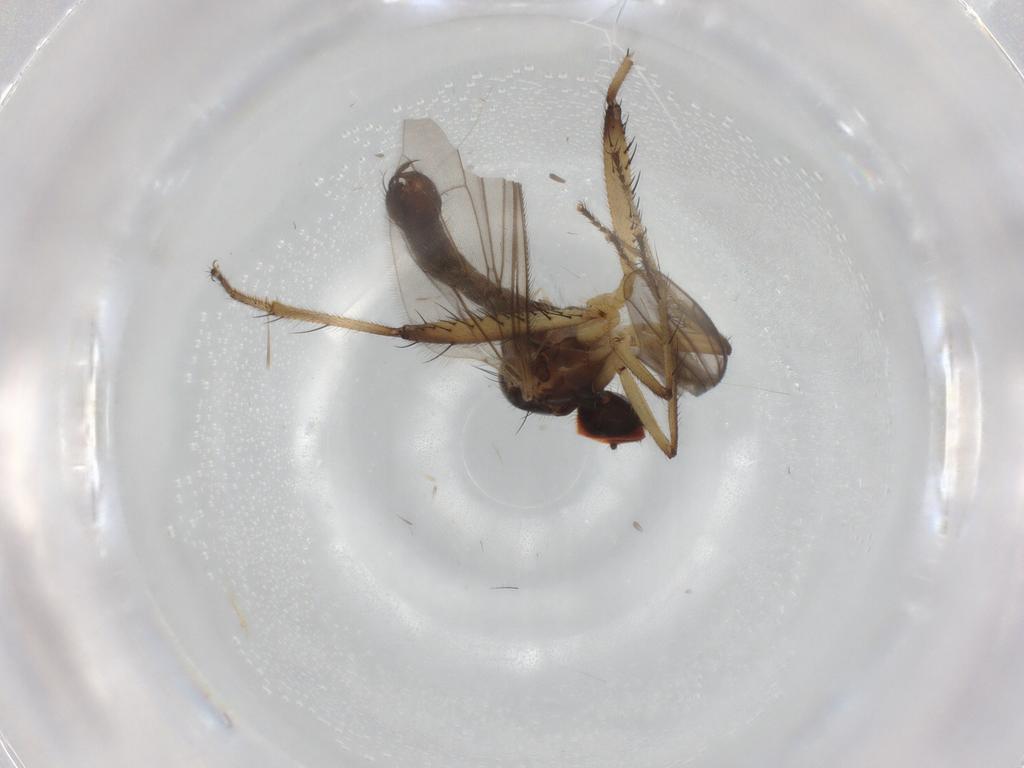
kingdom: Animalia
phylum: Arthropoda
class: Insecta
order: Diptera
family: Hybotidae
